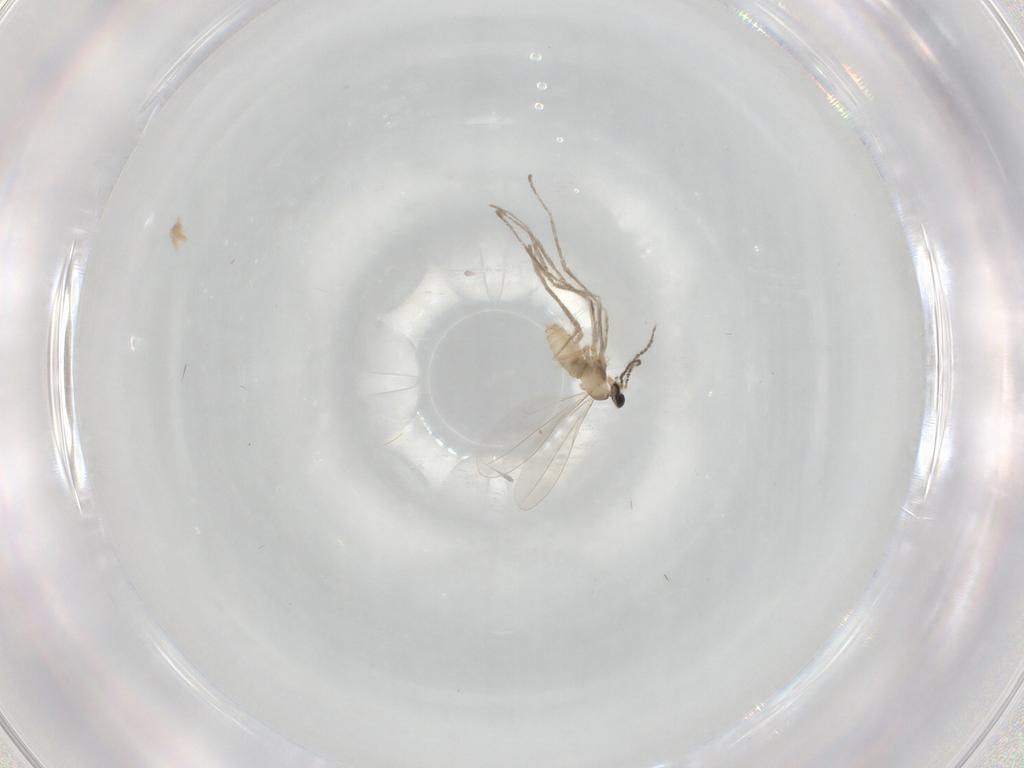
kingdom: Animalia
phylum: Arthropoda
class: Insecta
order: Diptera
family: Cecidomyiidae
